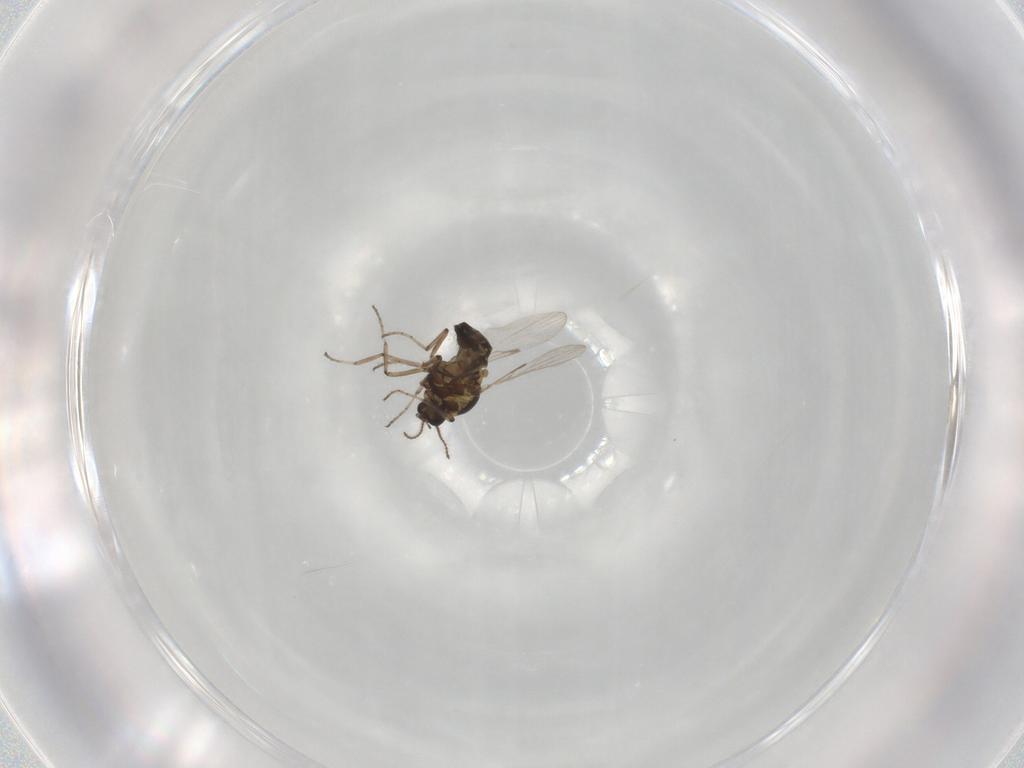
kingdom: Animalia
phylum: Arthropoda
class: Insecta
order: Diptera
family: Ceratopogonidae
